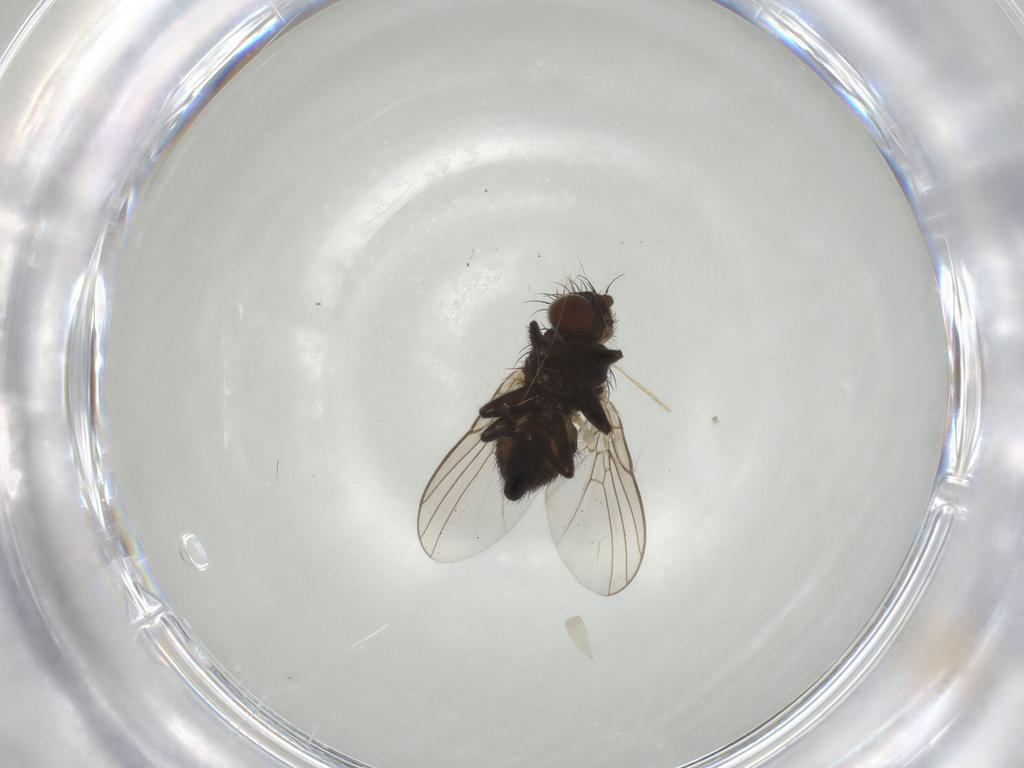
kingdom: Animalia
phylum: Arthropoda
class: Insecta
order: Diptera
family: Agromyzidae
